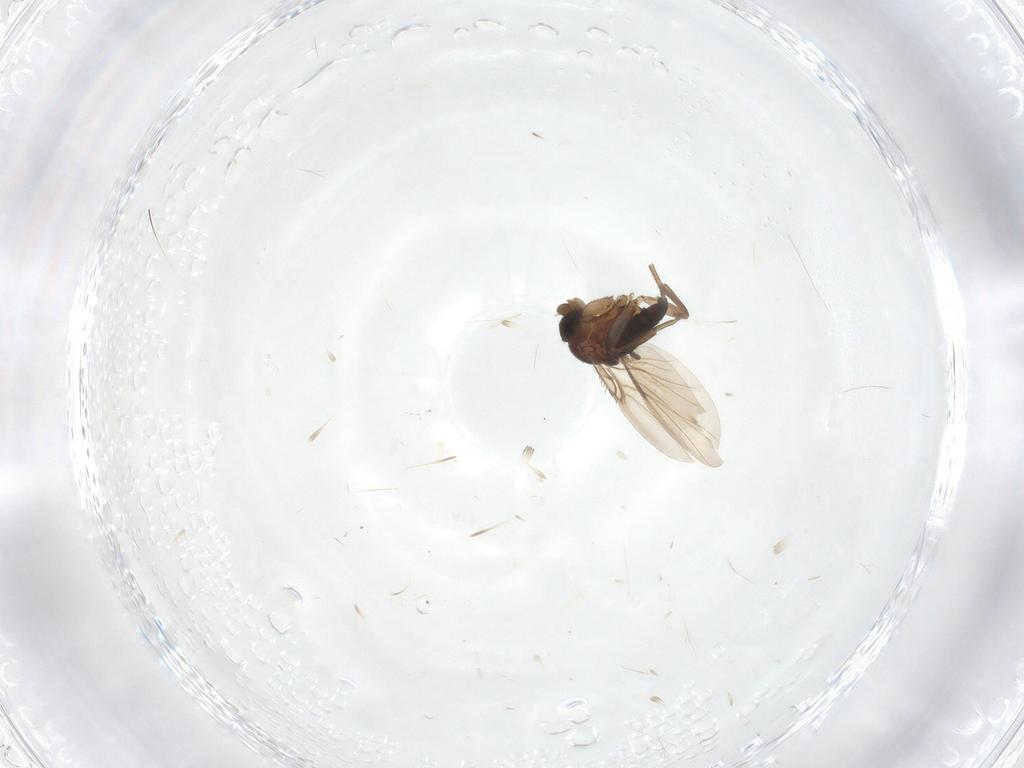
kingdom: Animalia
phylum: Arthropoda
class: Insecta
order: Diptera
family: Phoridae
